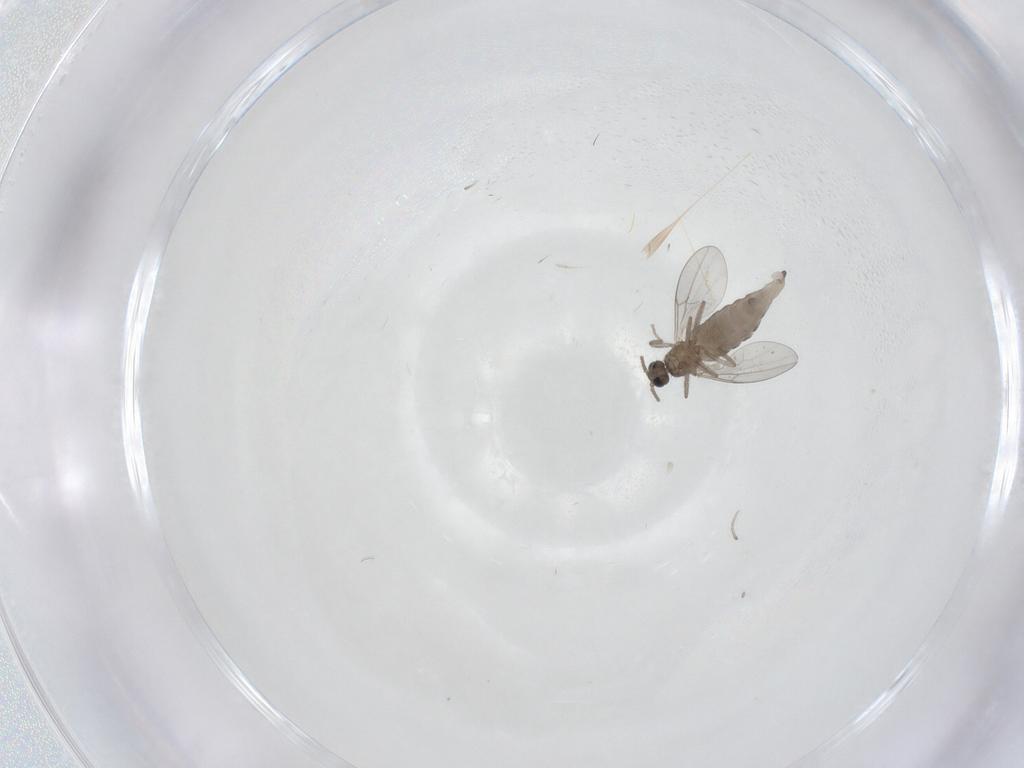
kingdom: Animalia
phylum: Arthropoda
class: Insecta
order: Diptera
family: Cecidomyiidae
